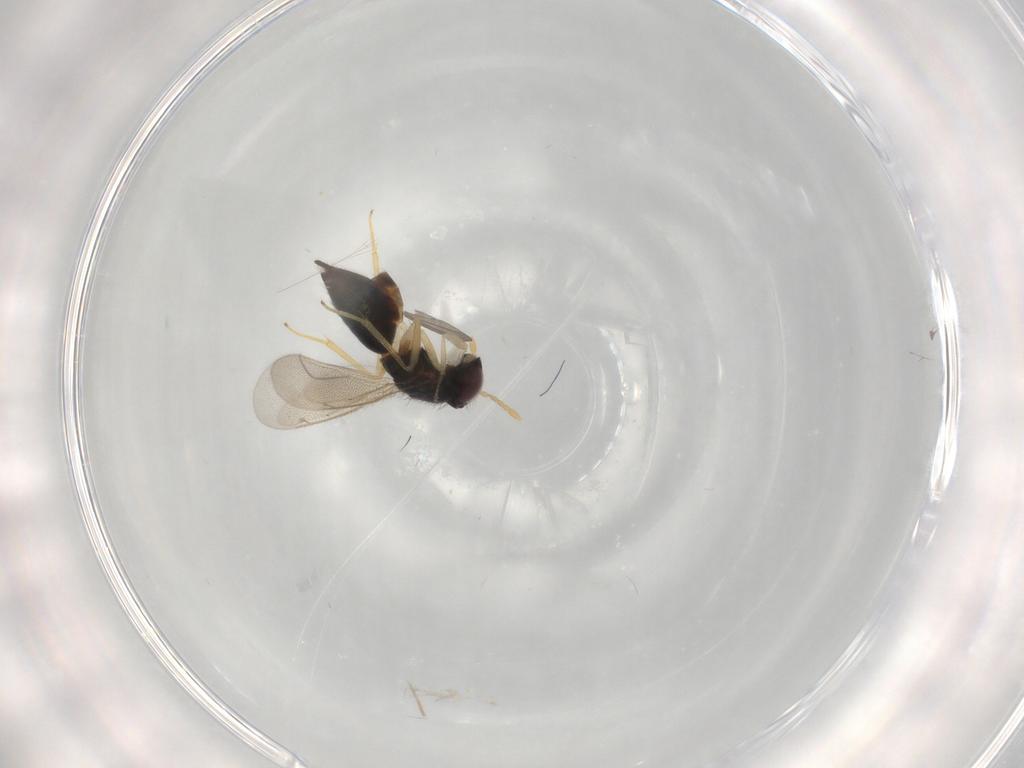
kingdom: Animalia
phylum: Arthropoda
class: Insecta
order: Hymenoptera
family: Eulophidae
